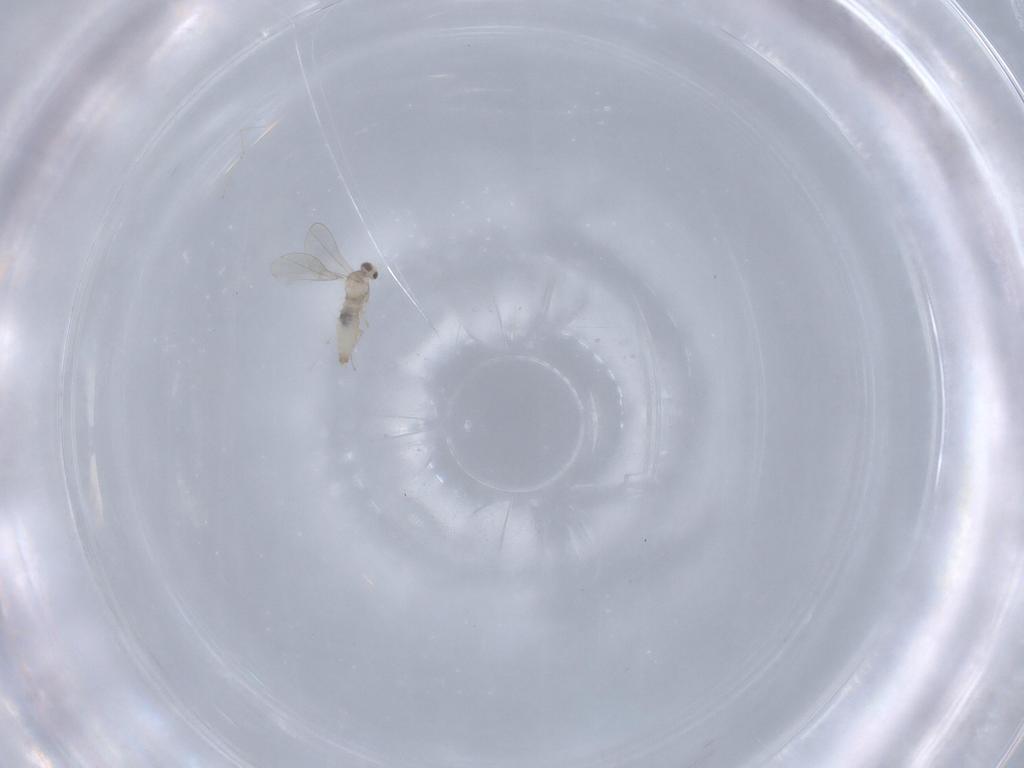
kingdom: Animalia
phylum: Arthropoda
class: Insecta
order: Diptera
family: Cecidomyiidae
